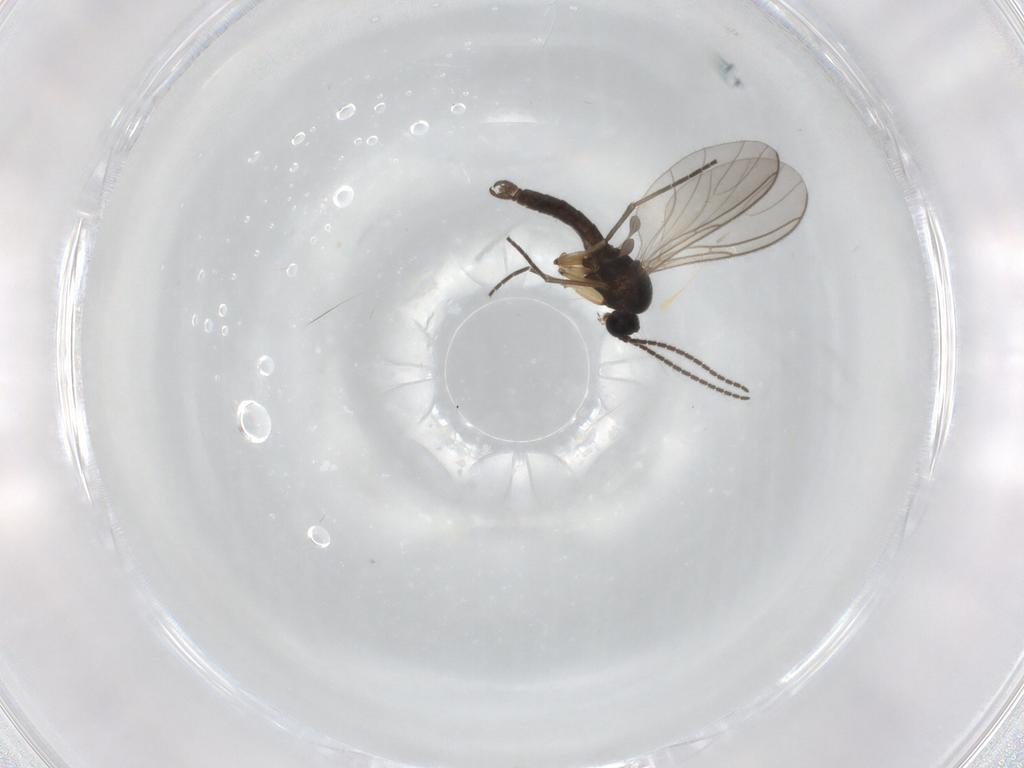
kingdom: Animalia
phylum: Arthropoda
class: Insecta
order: Diptera
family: Sciaridae
